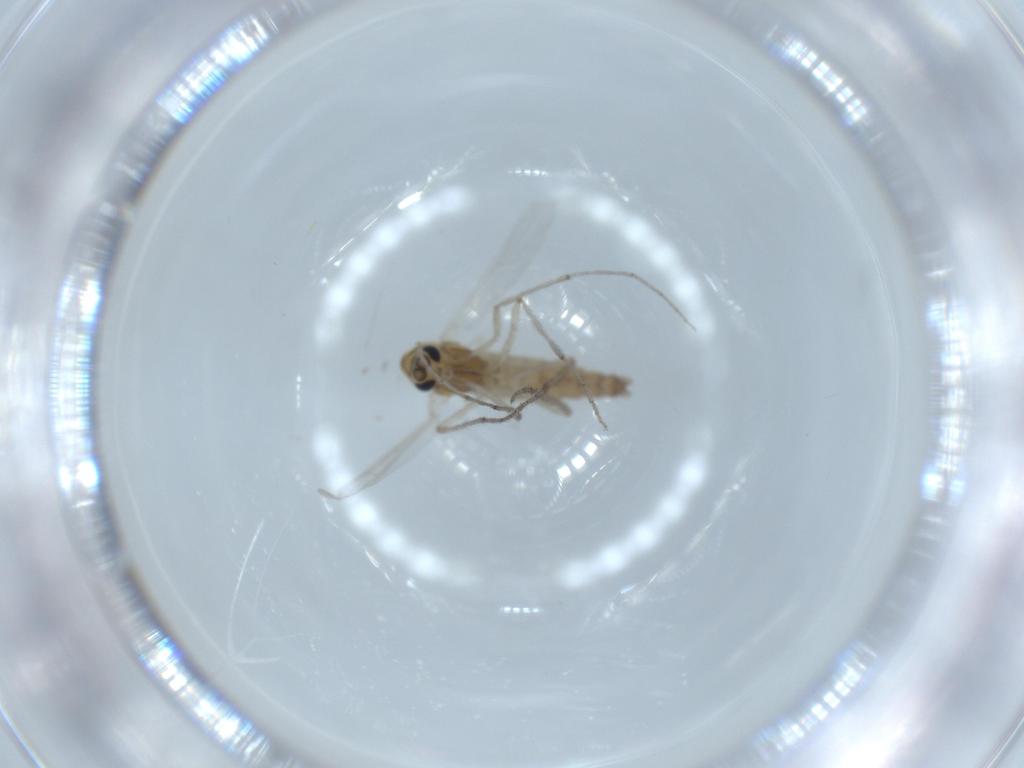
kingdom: Animalia
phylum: Arthropoda
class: Insecta
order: Diptera
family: Chironomidae
